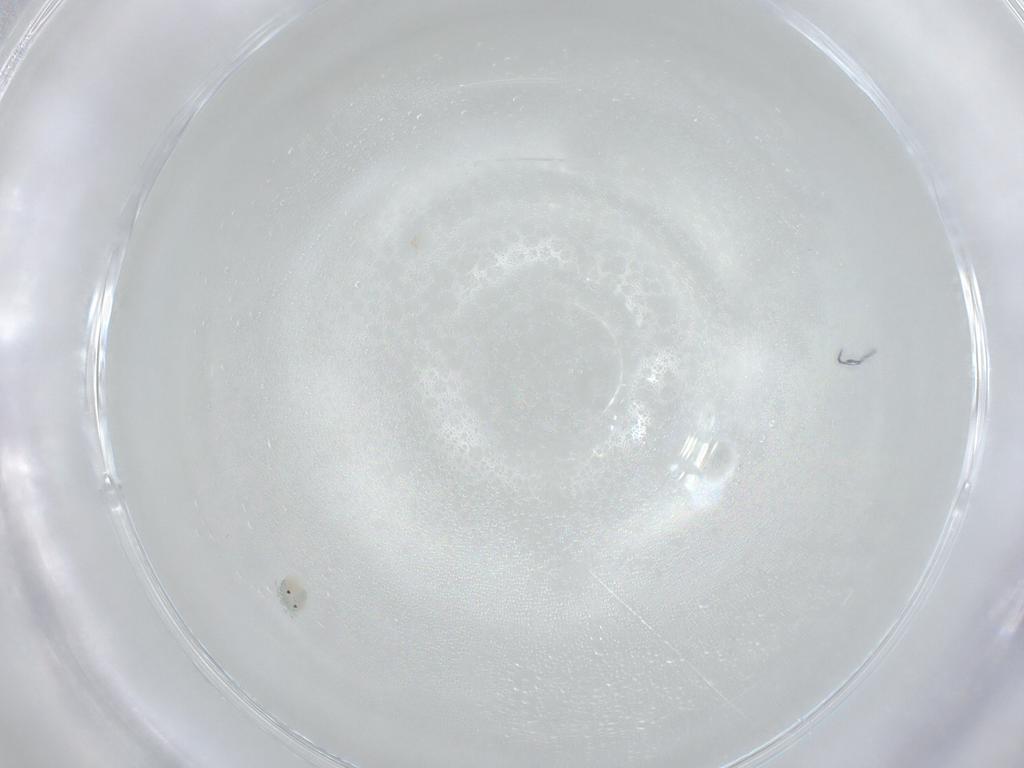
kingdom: Animalia
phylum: Arthropoda
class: Arachnida
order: Trombidiformes
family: Arrenuridae
